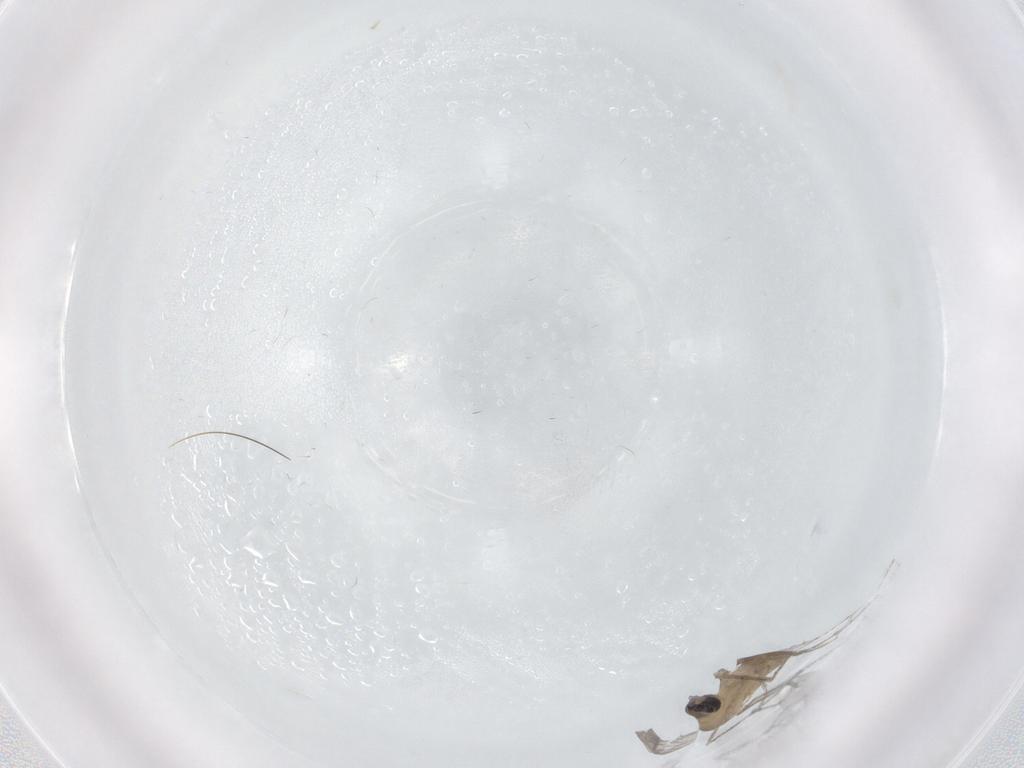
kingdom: Animalia
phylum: Arthropoda
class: Insecta
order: Diptera
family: Cecidomyiidae
